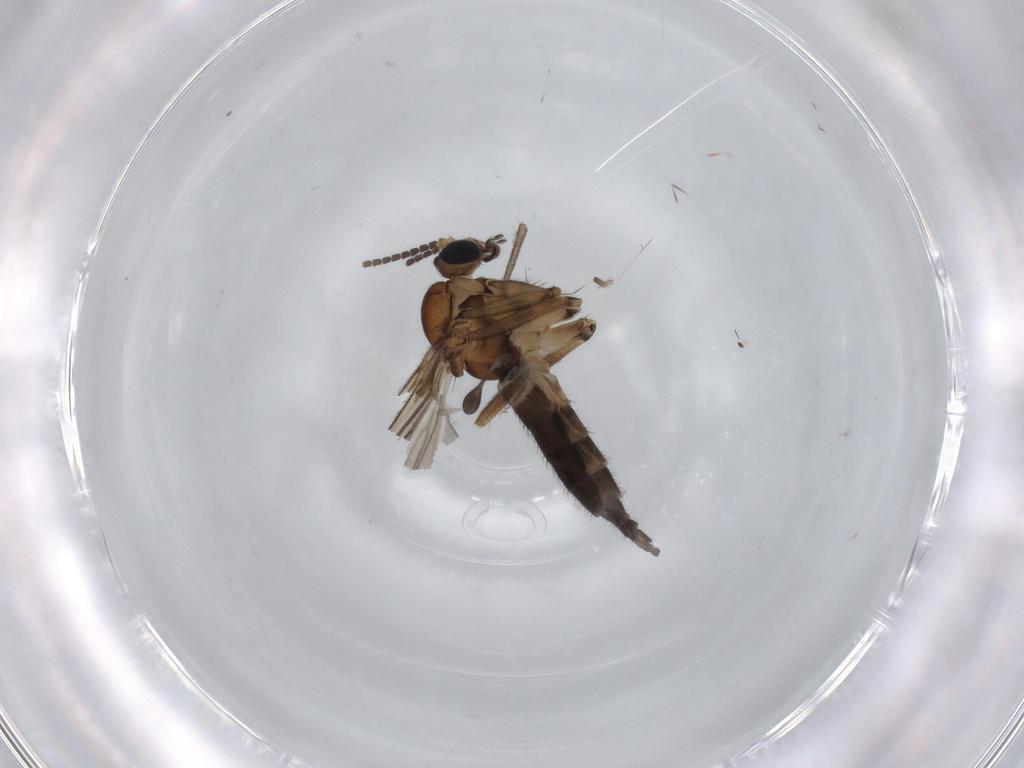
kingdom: Animalia
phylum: Arthropoda
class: Insecta
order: Diptera
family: Sciaridae
